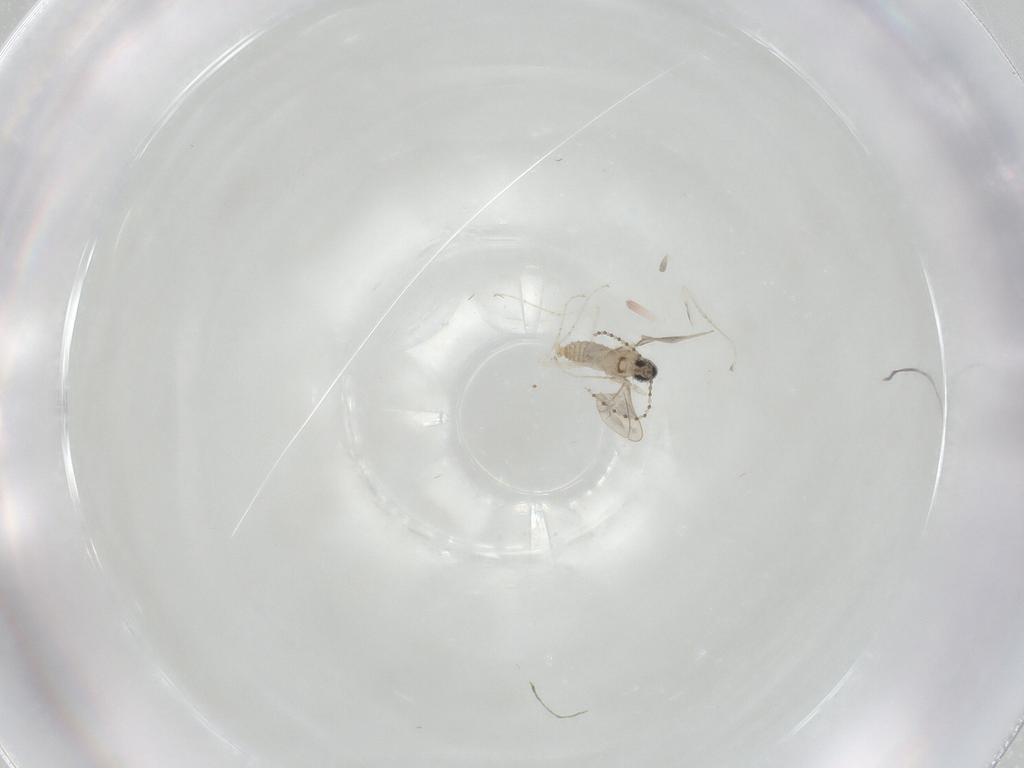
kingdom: Animalia
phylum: Arthropoda
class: Insecta
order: Diptera
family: Cecidomyiidae
